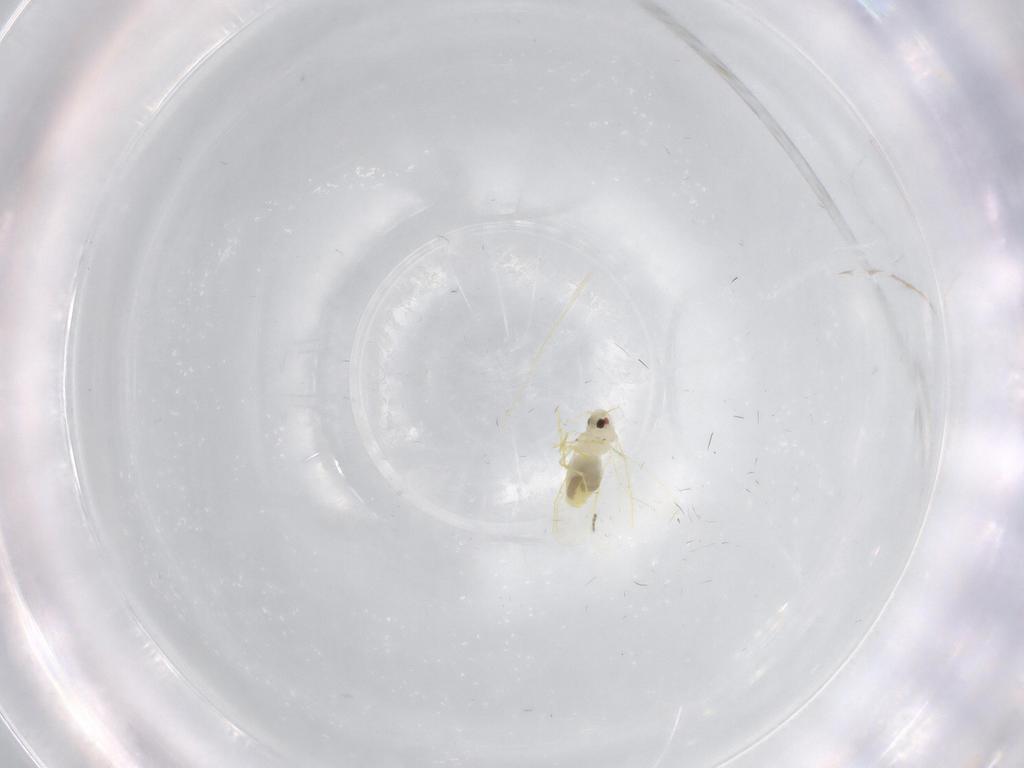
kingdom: Animalia
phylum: Arthropoda
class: Insecta
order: Hemiptera
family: Aleyrodidae
